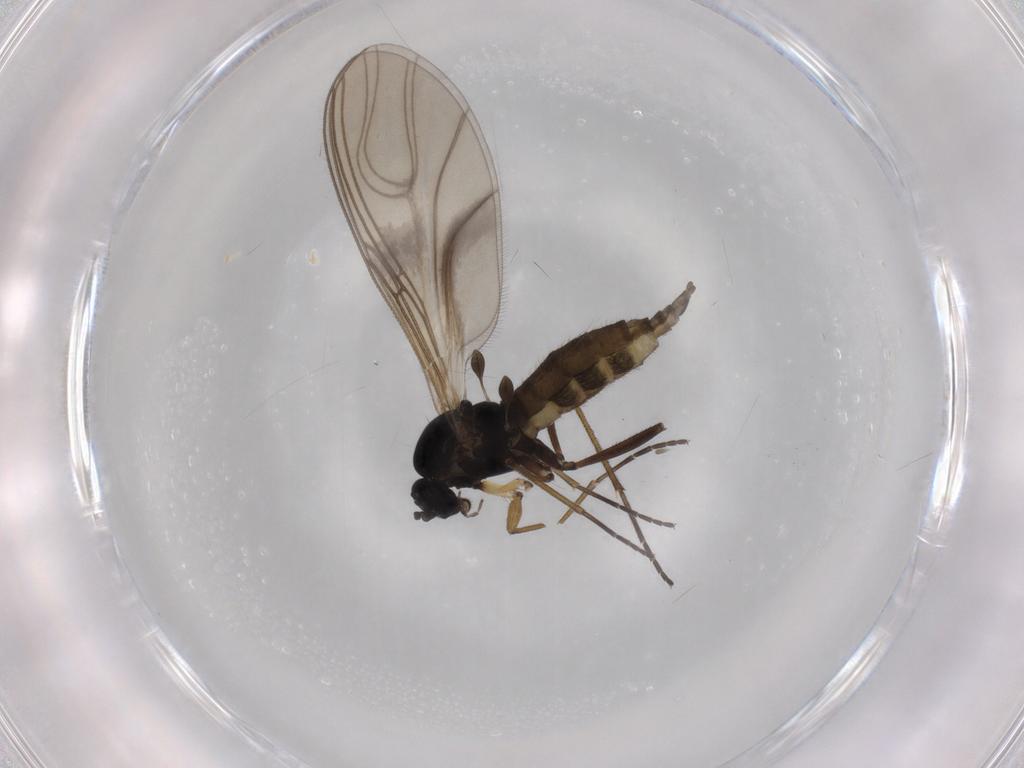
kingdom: Animalia
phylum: Arthropoda
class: Insecta
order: Diptera
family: Sciaridae
